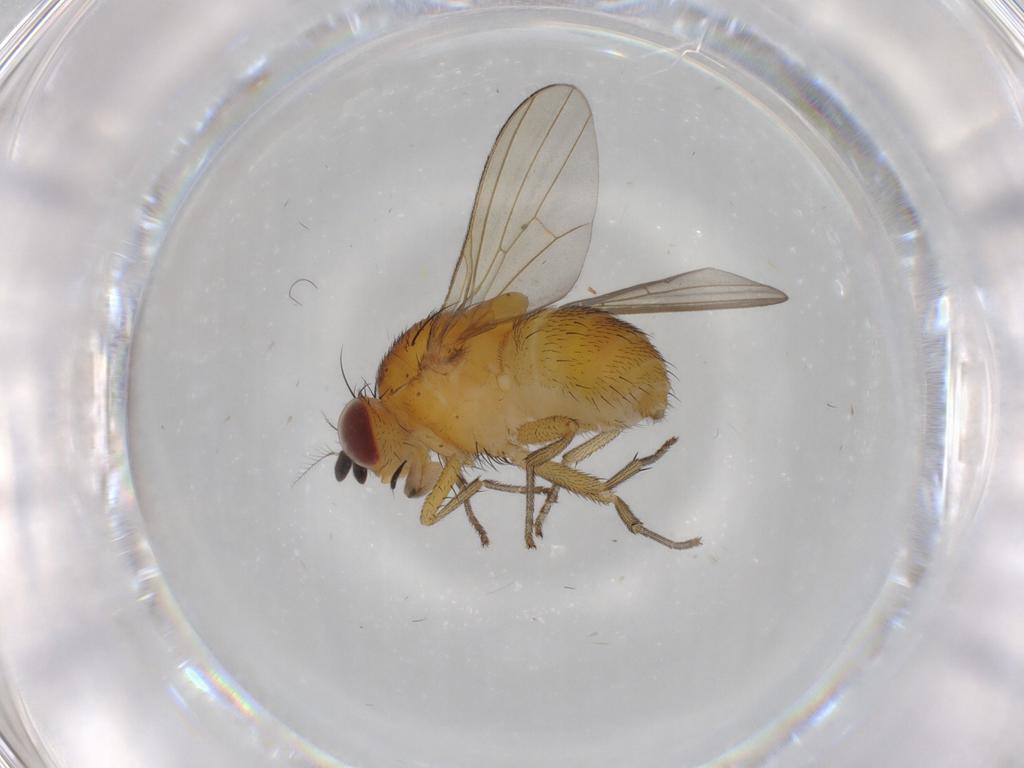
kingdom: Animalia
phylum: Arthropoda
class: Insecta
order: Diptera
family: Lauxaniidae
